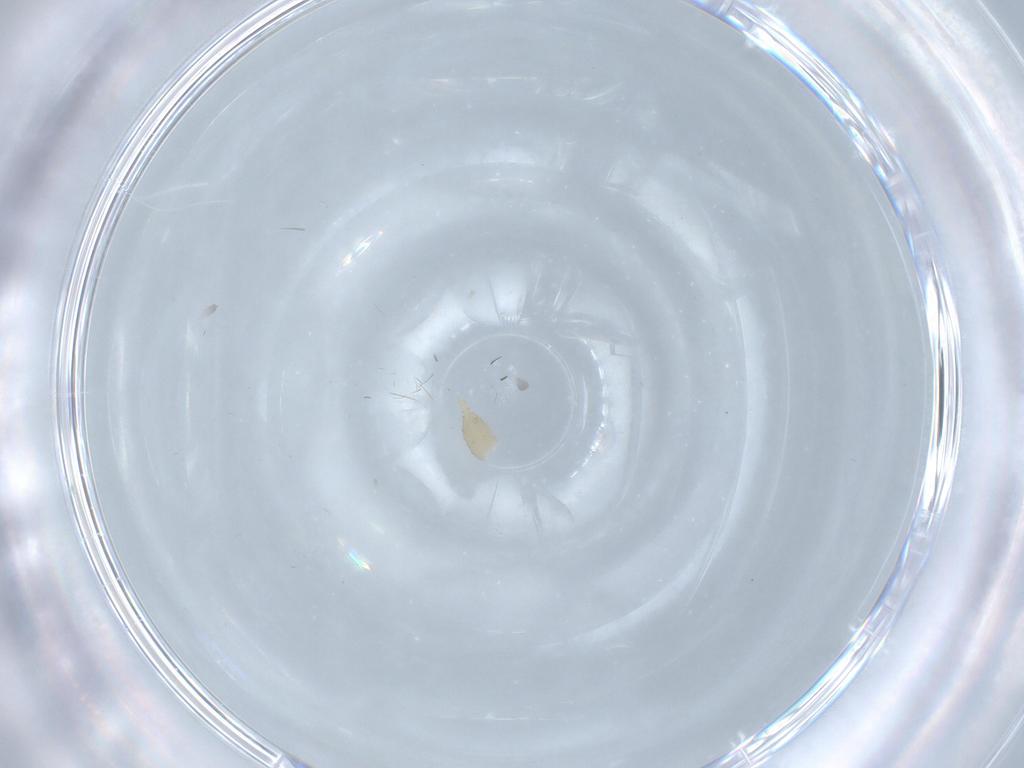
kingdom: Animalia
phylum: Arthropoda
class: Insecta
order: Diptera
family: Cecidomyiidae
